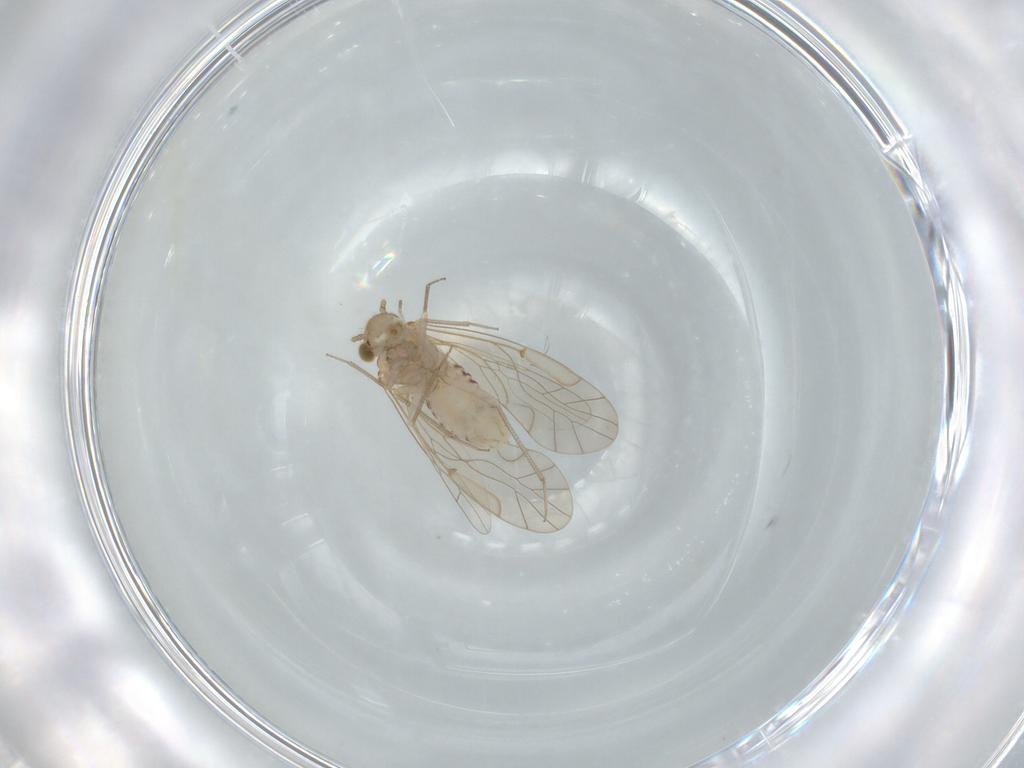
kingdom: Animalia
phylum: Arthropoda
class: Insecta
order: Psocodea
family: Lachesillidae
